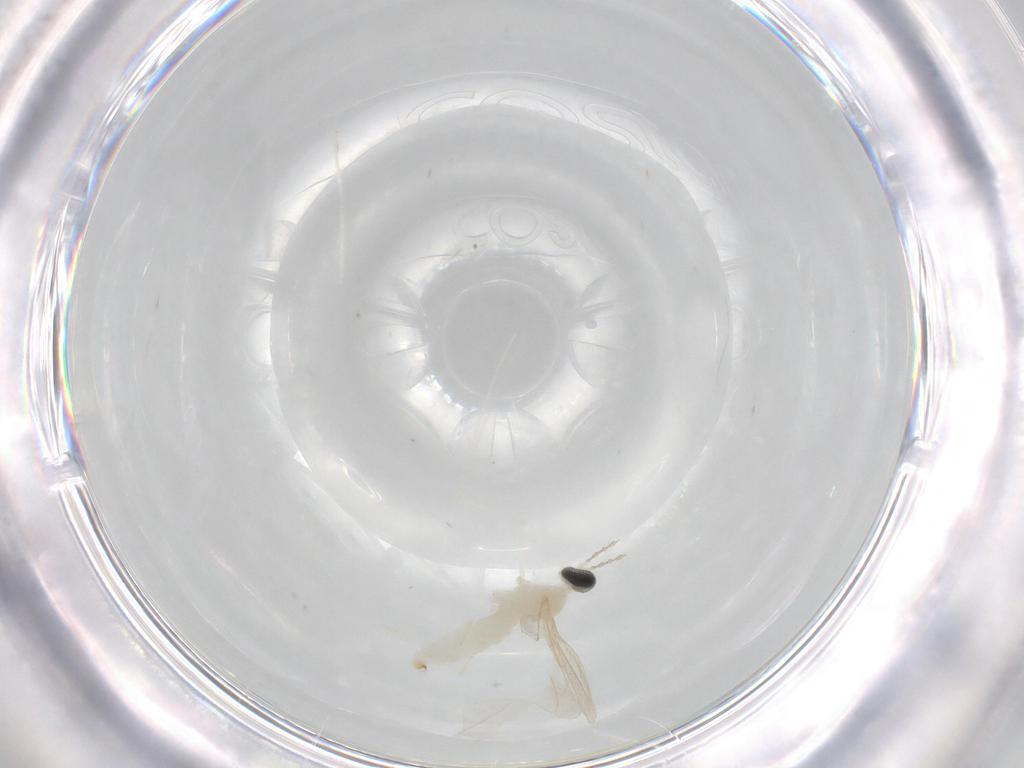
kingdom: Animalia
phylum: Arthropoda
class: Insecta
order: Diptera
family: Cecidomyiidae
